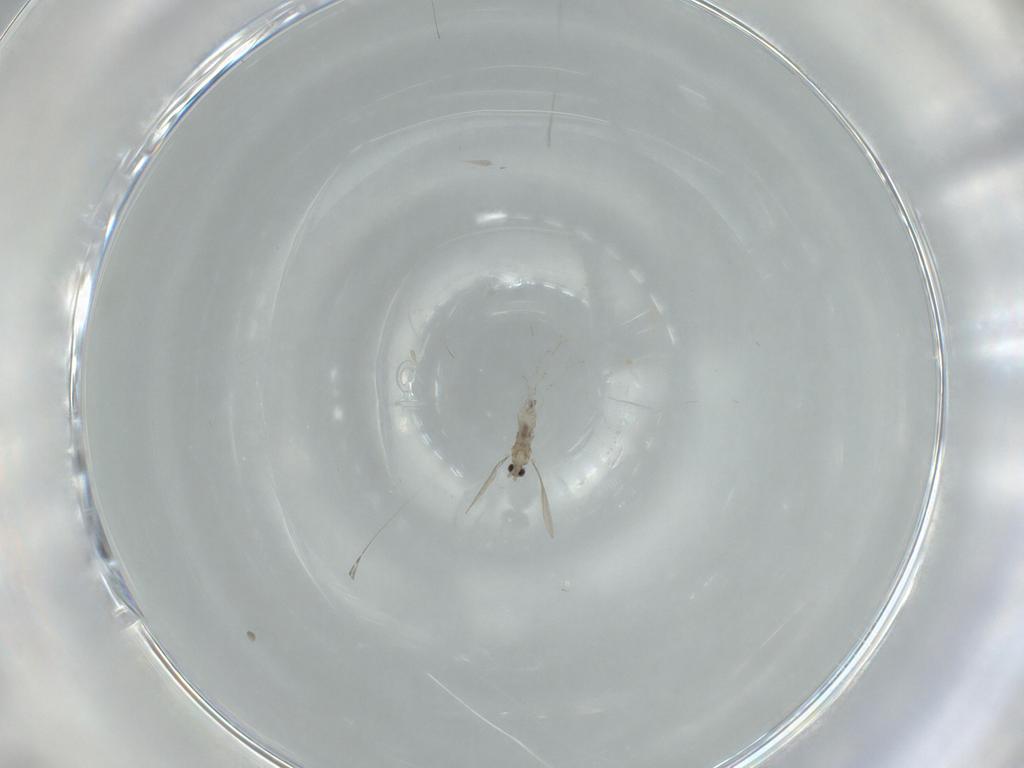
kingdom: Animalia
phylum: Arthropoda
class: Insecta
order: Diptera
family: Cecidomyiidae
